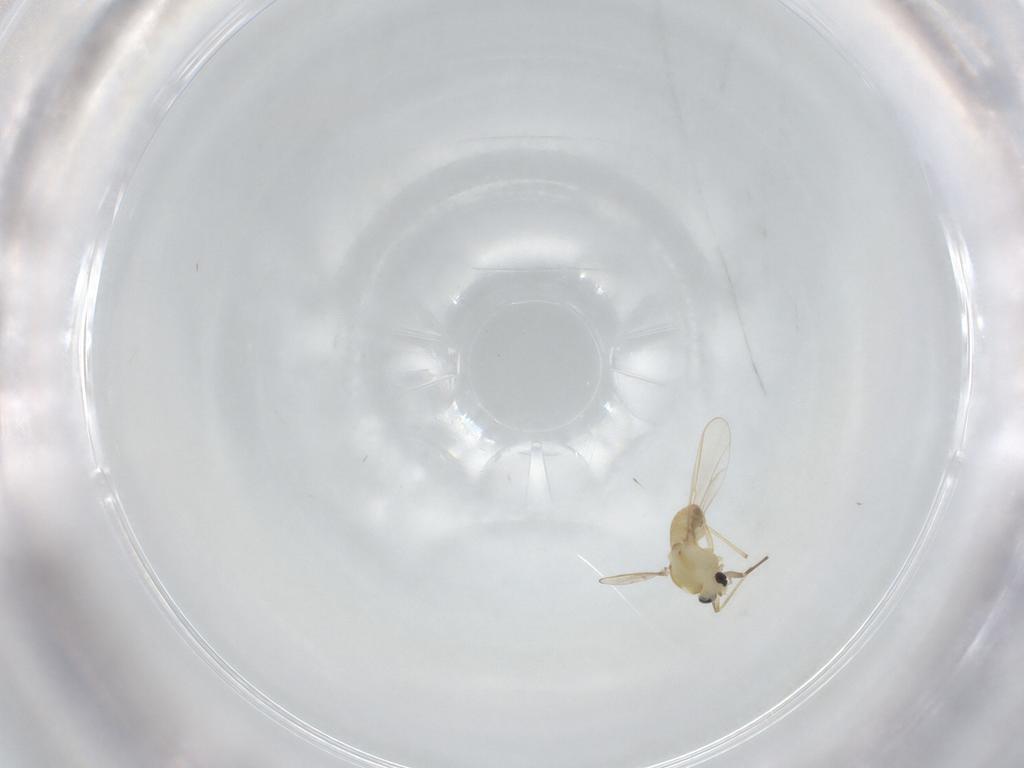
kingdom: Animalia
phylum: Arthropoda
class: Insecta
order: Diptera
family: Chironomidae
